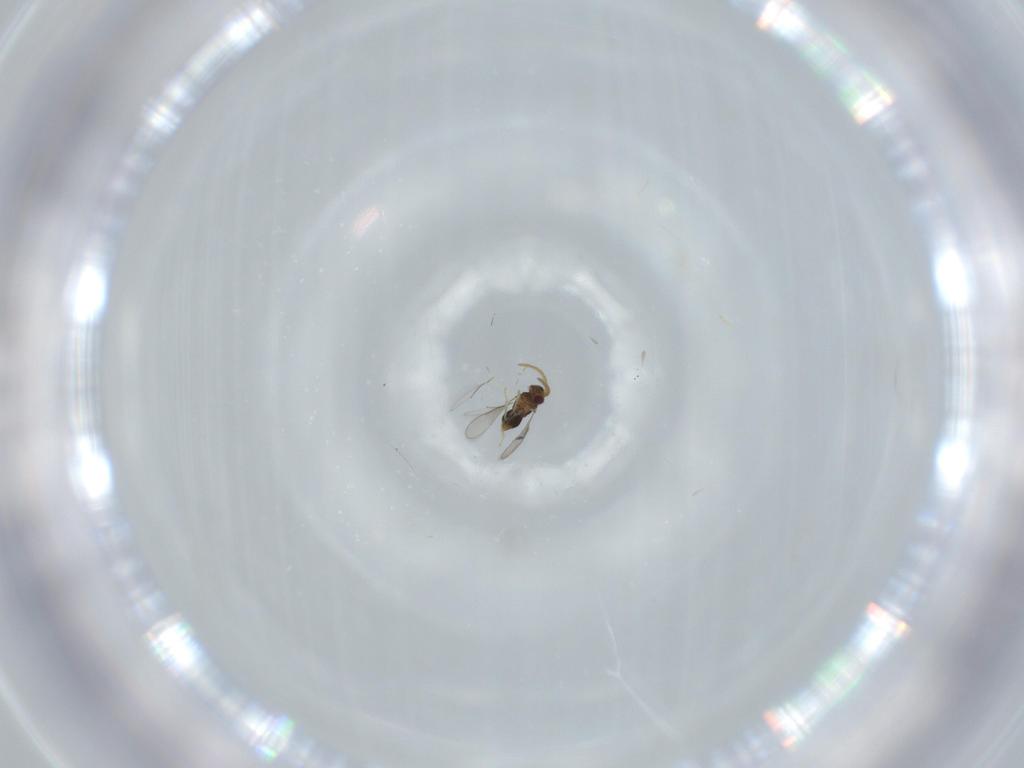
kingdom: Animalia
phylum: Arthropoda
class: Insecta
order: Hymenoptera
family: Aphelinidae
